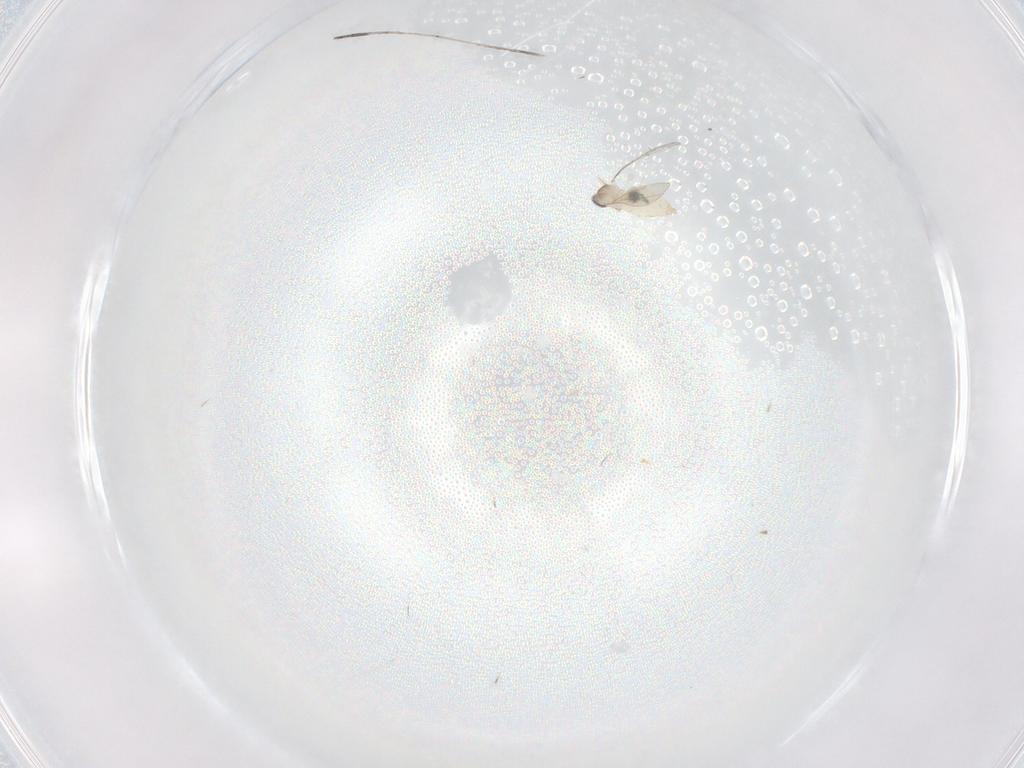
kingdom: Animalia
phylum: Arthropoda
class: Insecta
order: Diptera
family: Cecidomyiidae
